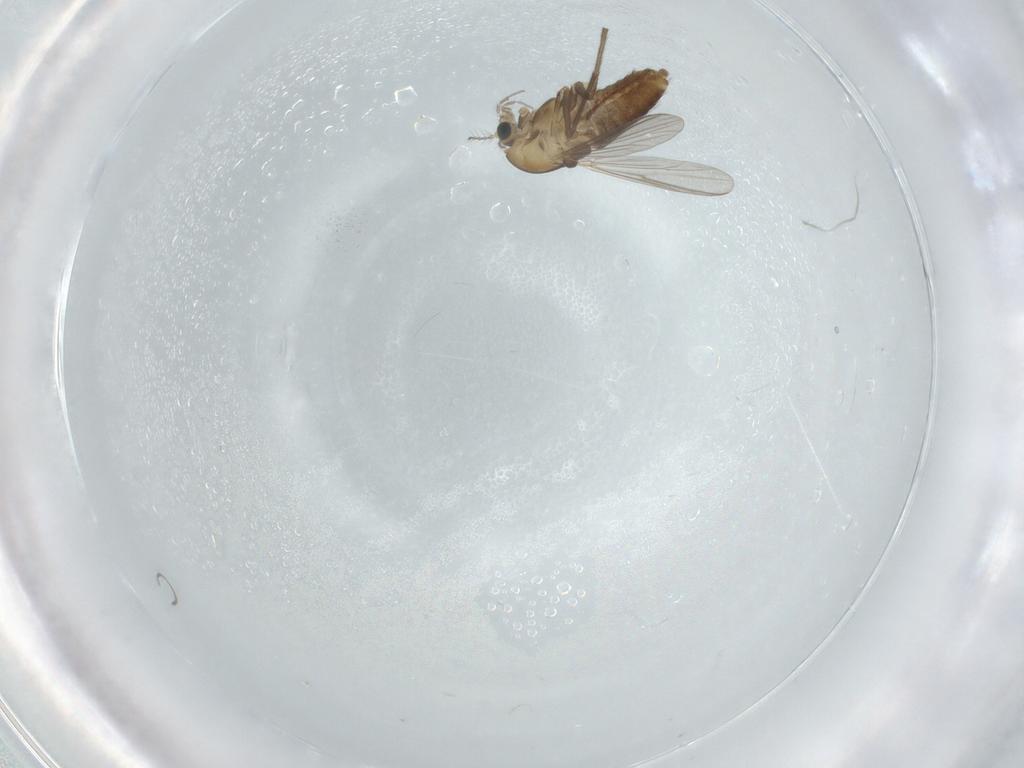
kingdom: Animalia
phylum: Arthropoda
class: Insecta
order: Diptera
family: Chironomidae
